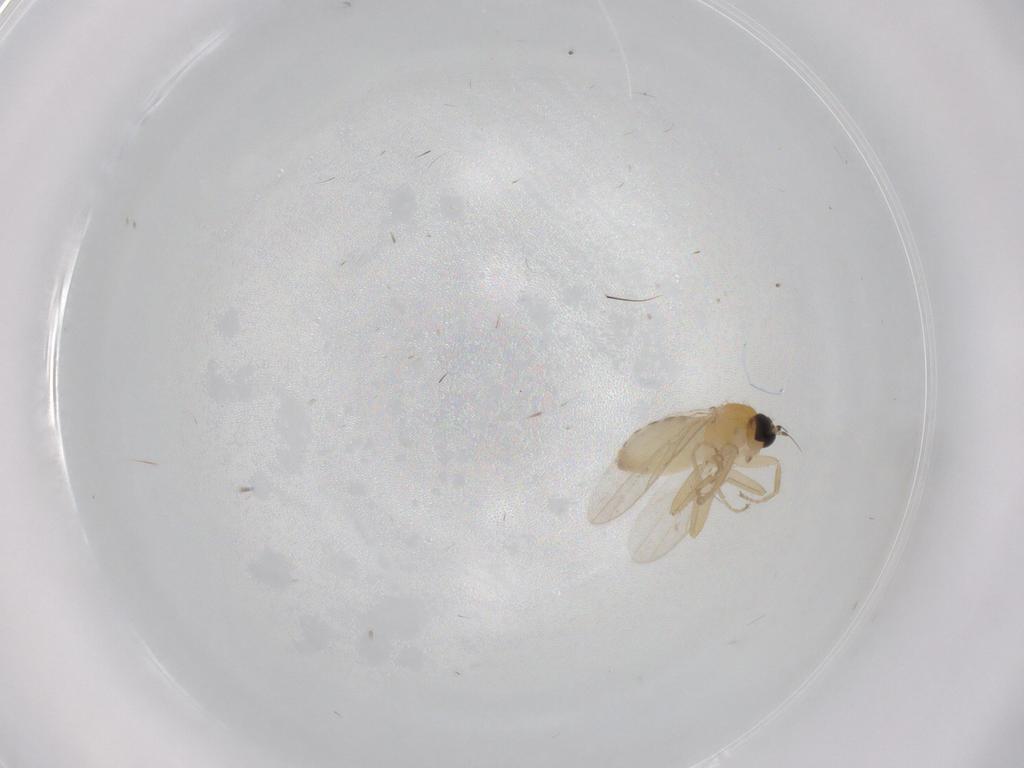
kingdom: Animalia
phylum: Arthropoda
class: Insecta
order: Diptera
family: Hybotidae
